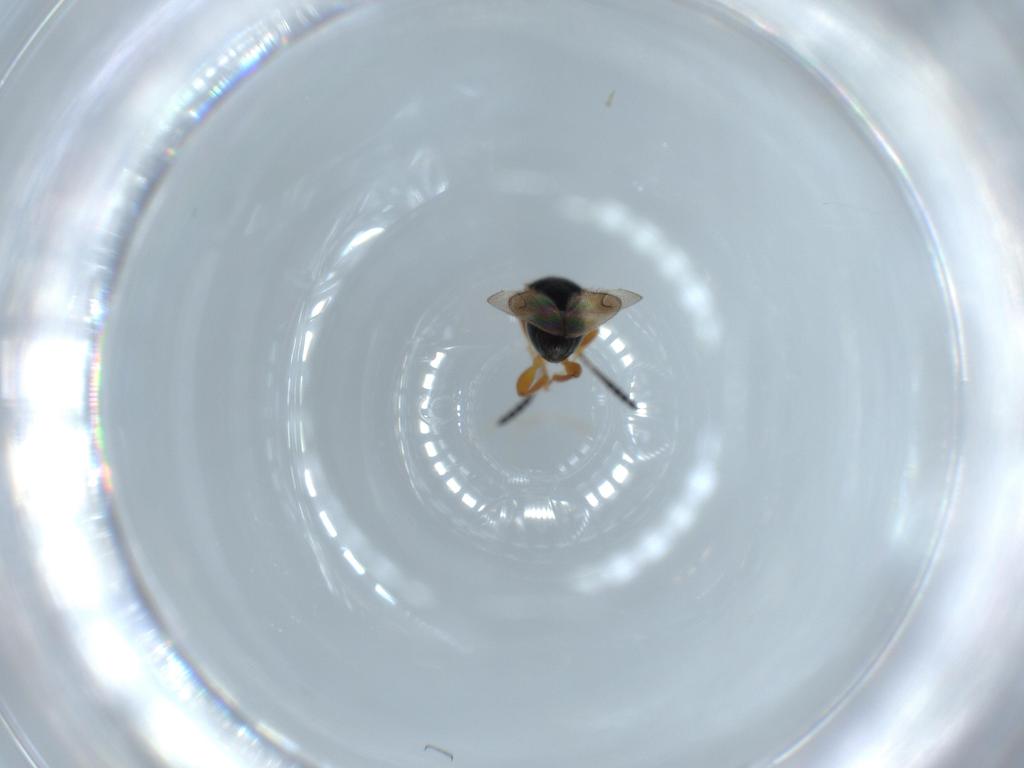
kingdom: Animalia
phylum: Arthropoda
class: Insecta
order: Hymenoptera
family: Ceraphronidae
